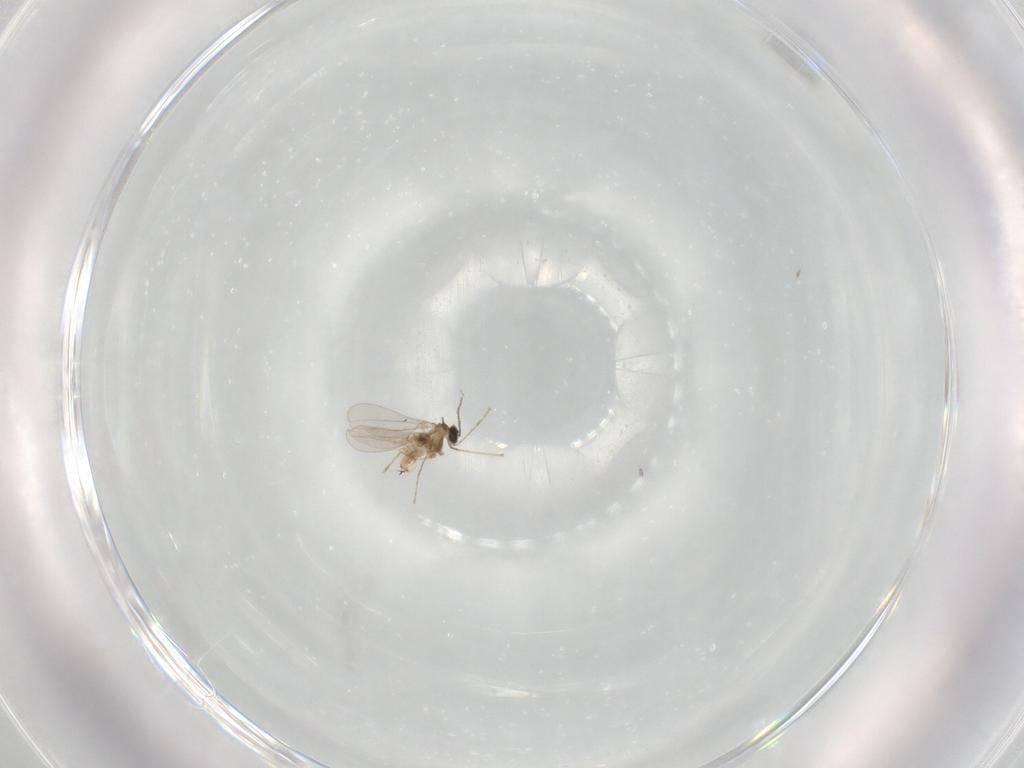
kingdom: Animalia
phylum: Arthropoda
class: Insecta
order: Diptera
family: Cecidomyiidae
